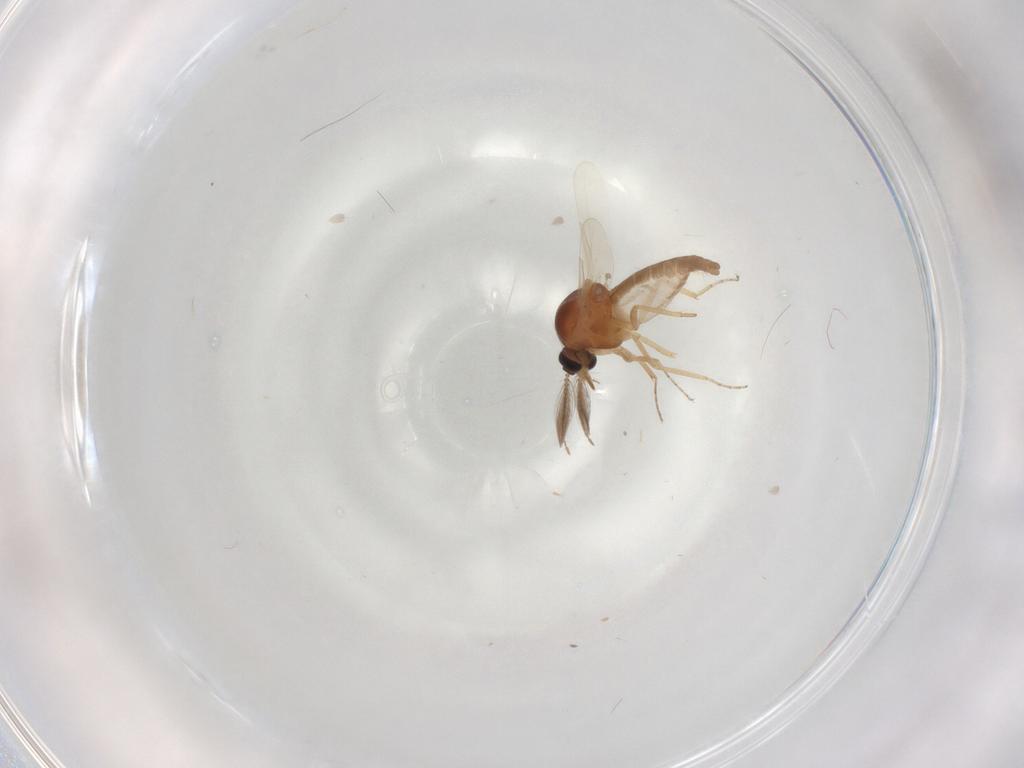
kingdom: Animalia
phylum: Arthropoda
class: Insecta
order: Diptera
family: Ceratopogonidae
